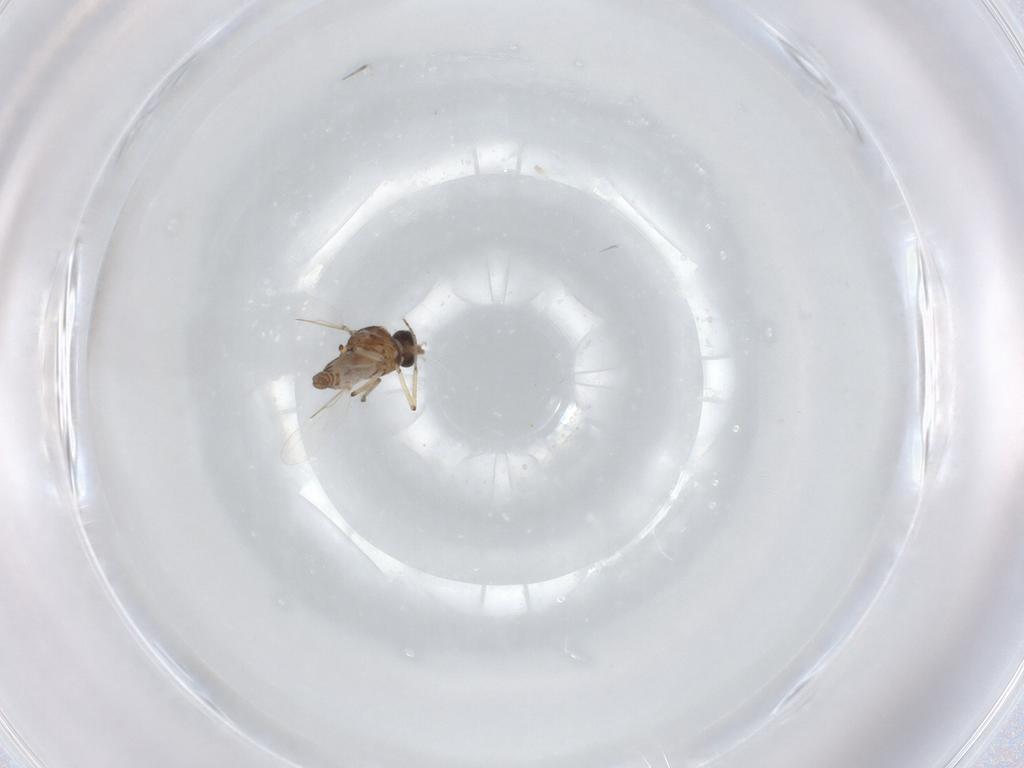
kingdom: Animalia
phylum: Arthropoda
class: Insecta
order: Diptera
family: Ceratopogonidae
